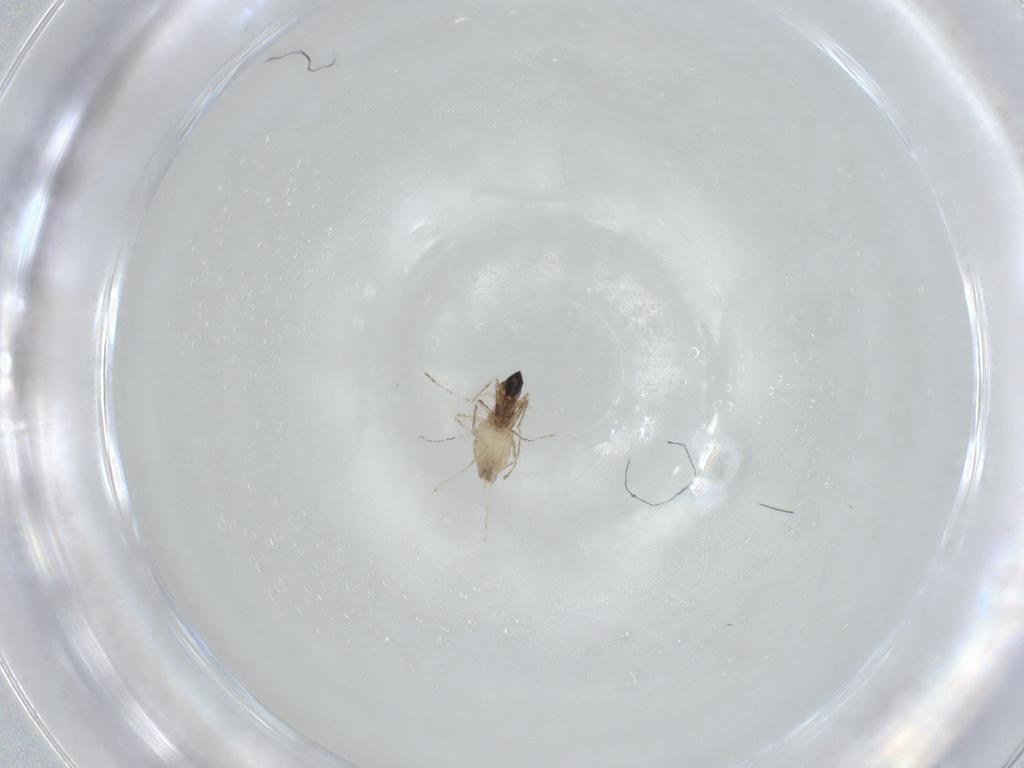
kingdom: Animalia
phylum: Arthropoda
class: Insecta
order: Diptera
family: Cecidomyiidae
